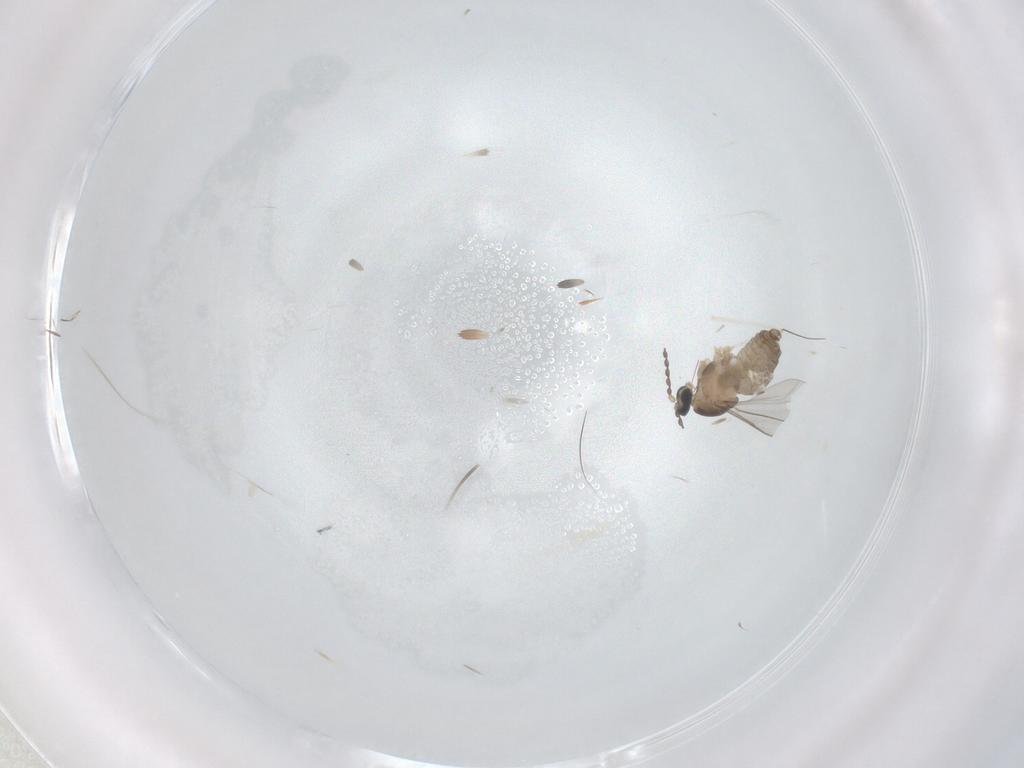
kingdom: Animalia
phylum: Arthropoda
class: Insecta
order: Diptera
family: Cecidomyiidae
